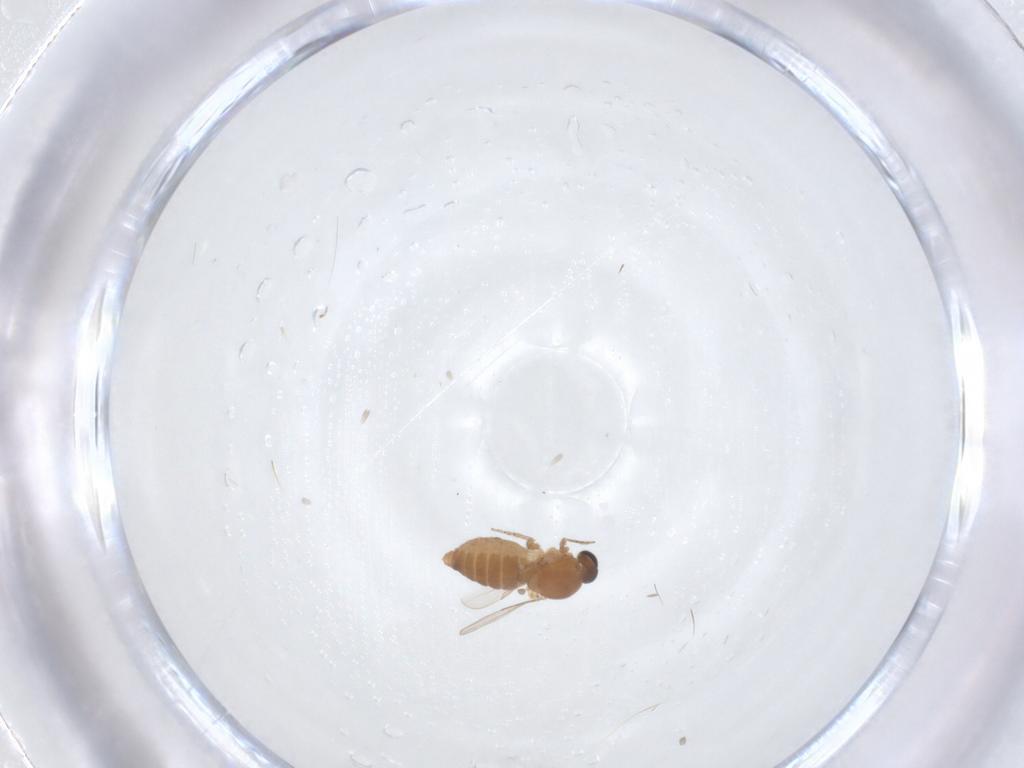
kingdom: Animalia
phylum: Arthropoda
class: Insecta
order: Diptera
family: Ceratopogonidae
